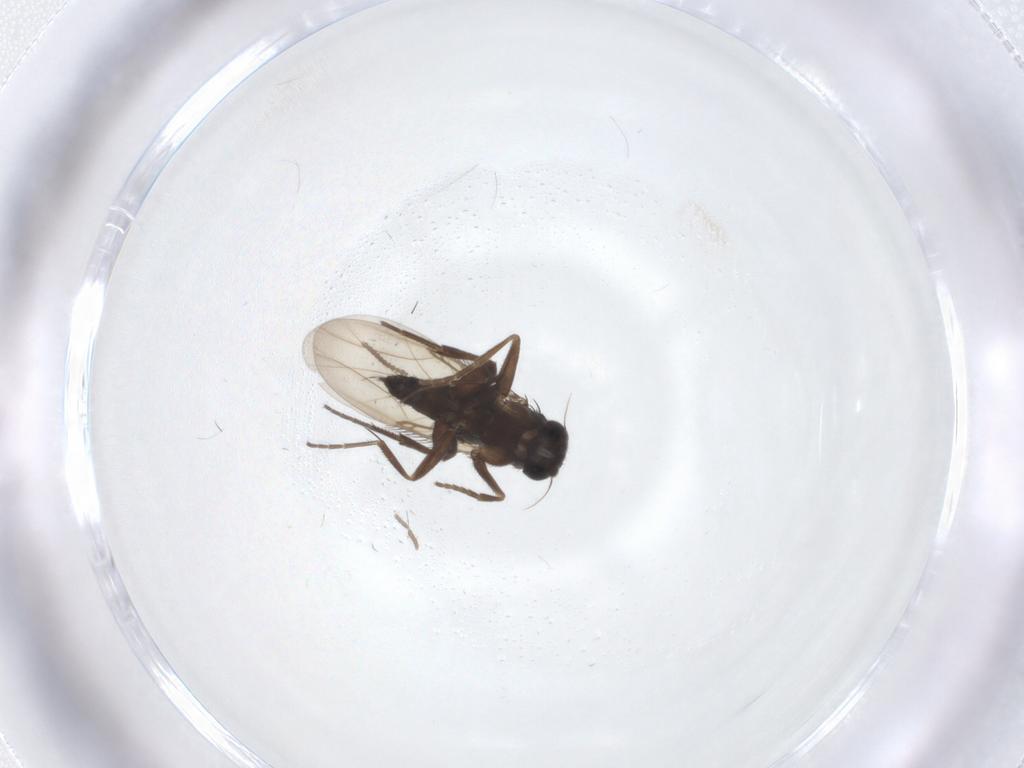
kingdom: Animalia
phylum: Arthropoda
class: Insecta
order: Diptera
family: Phoridae
